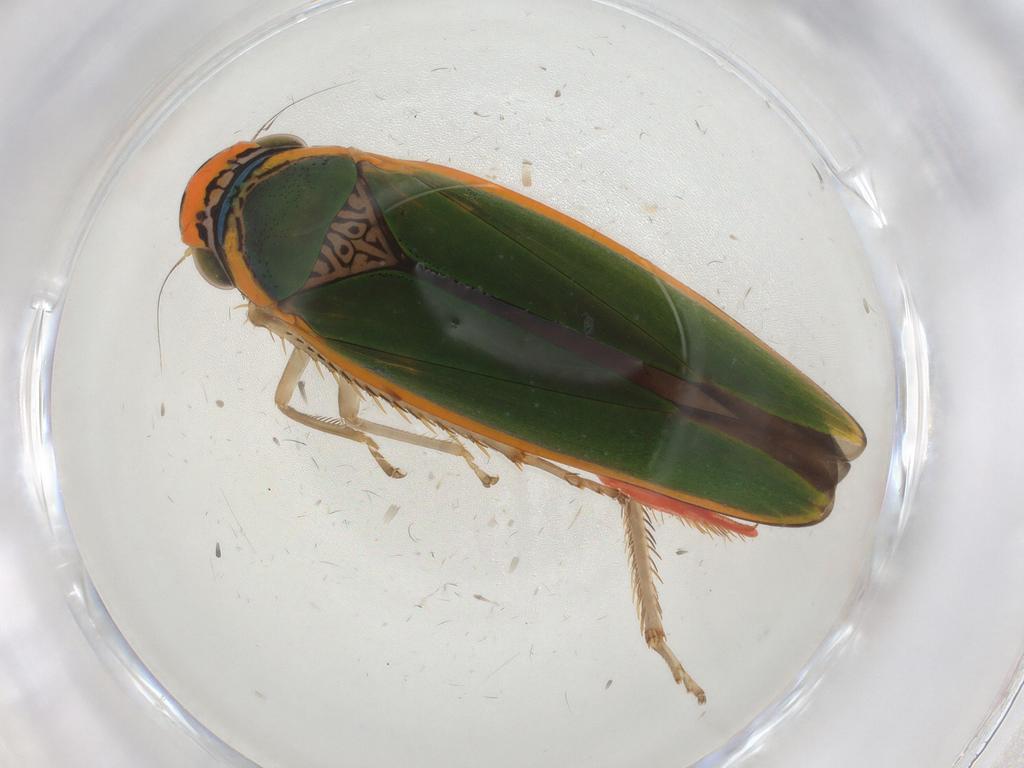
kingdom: Animalia
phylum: Arthropoda
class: Insecta
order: Hemiptera
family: Cicadellidae
